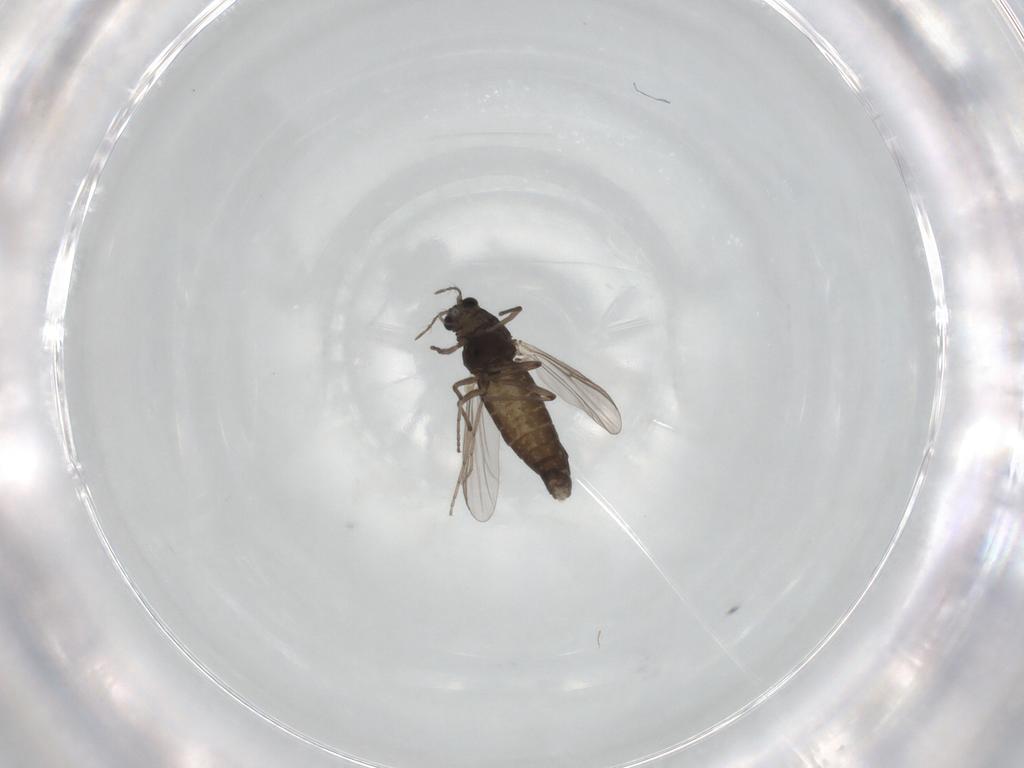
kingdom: Animalia
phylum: Arthropoda
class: Insecta
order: Diptera
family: Chironomidae
